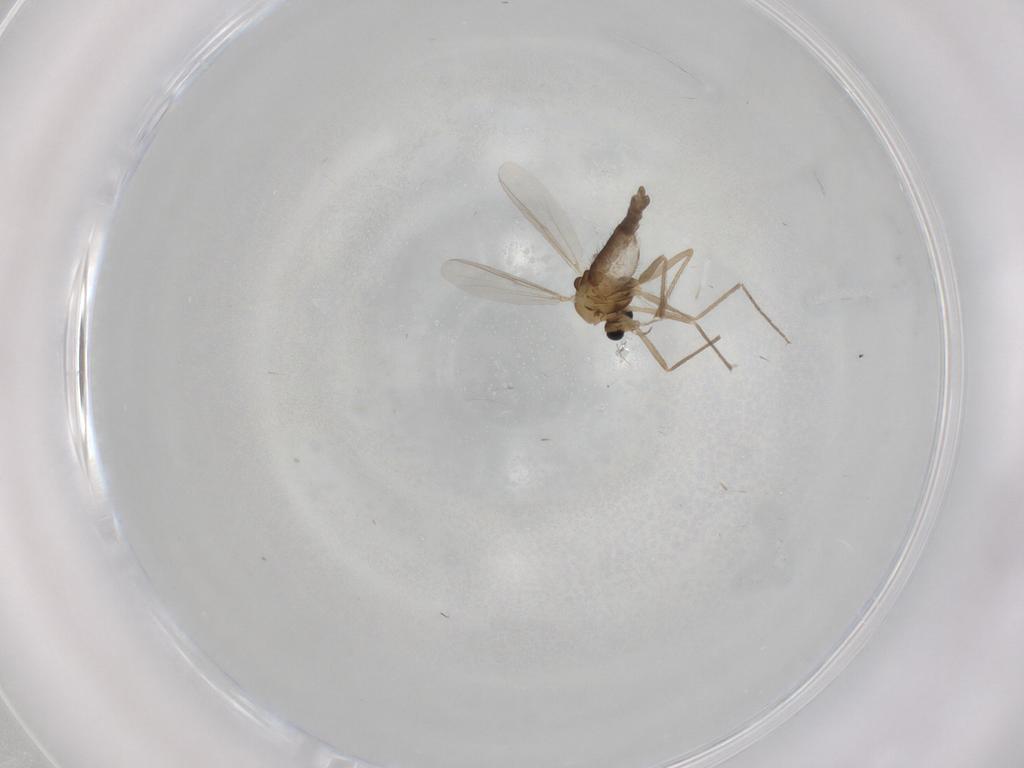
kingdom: Animalia
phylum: Arthropoda
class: Insecta
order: Diptera
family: Chironomidae
